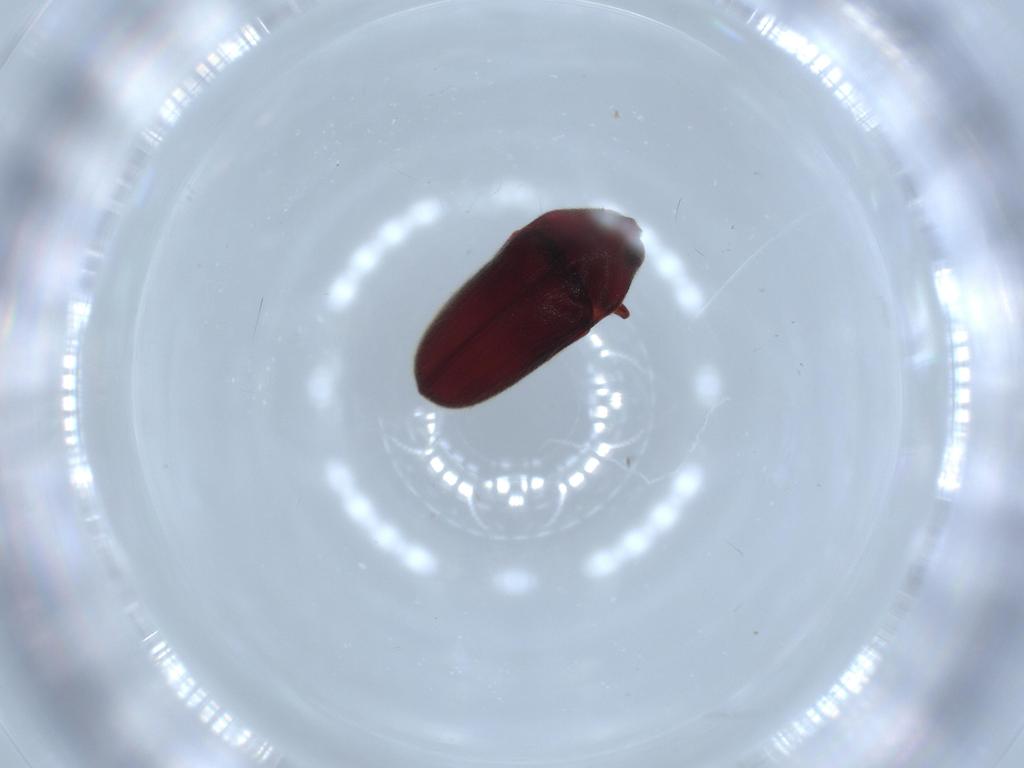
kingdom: Animalia
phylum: Arthropoda
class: Insecta
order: Coleoptera
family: Throscidae
